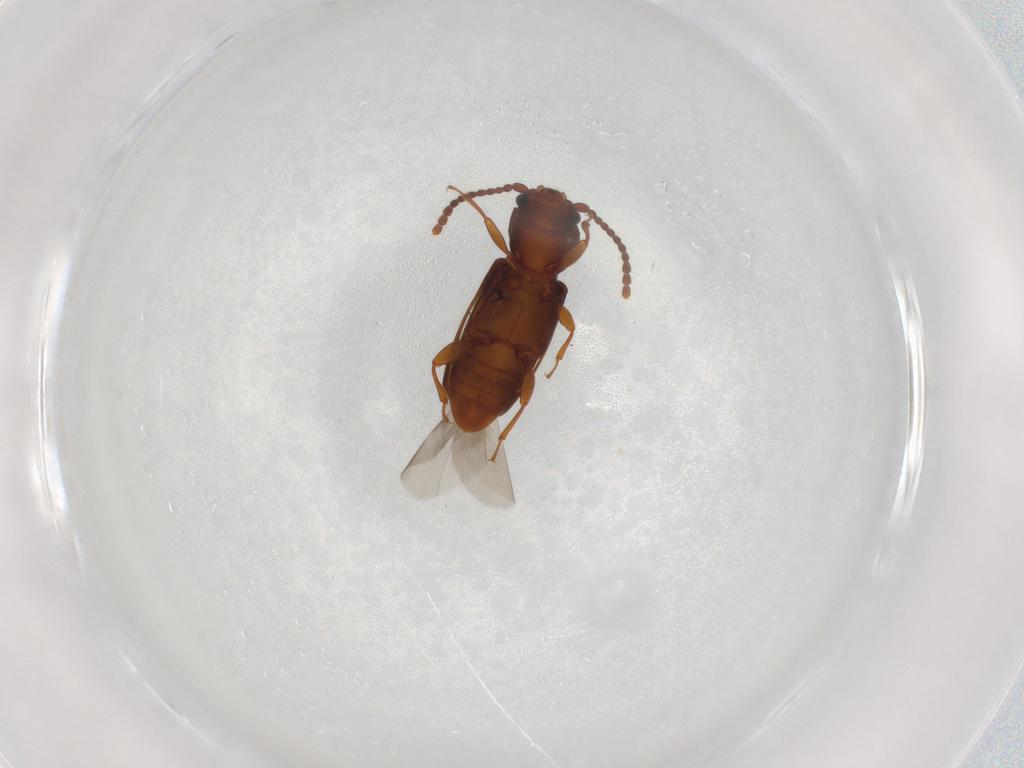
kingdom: Animalia
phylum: Arthropoda
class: Insecta
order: Coleoptera
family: Laemophloeidae
